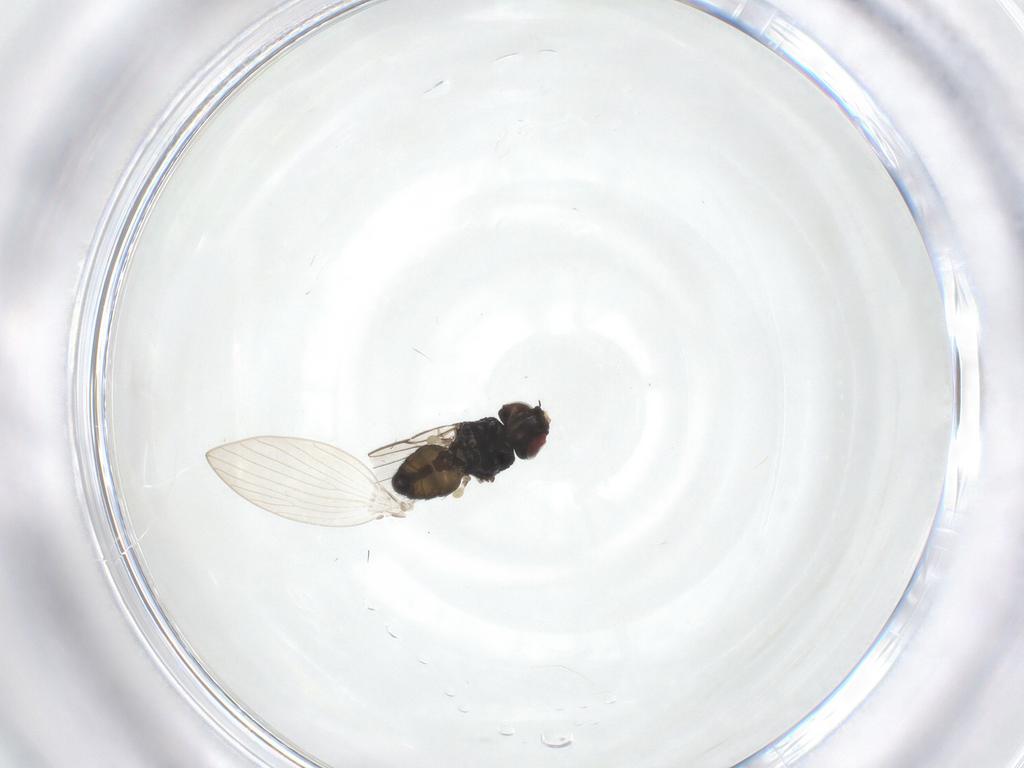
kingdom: Animalia
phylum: Arthropoda
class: Insecta
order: Diptera
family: Chloropidae
